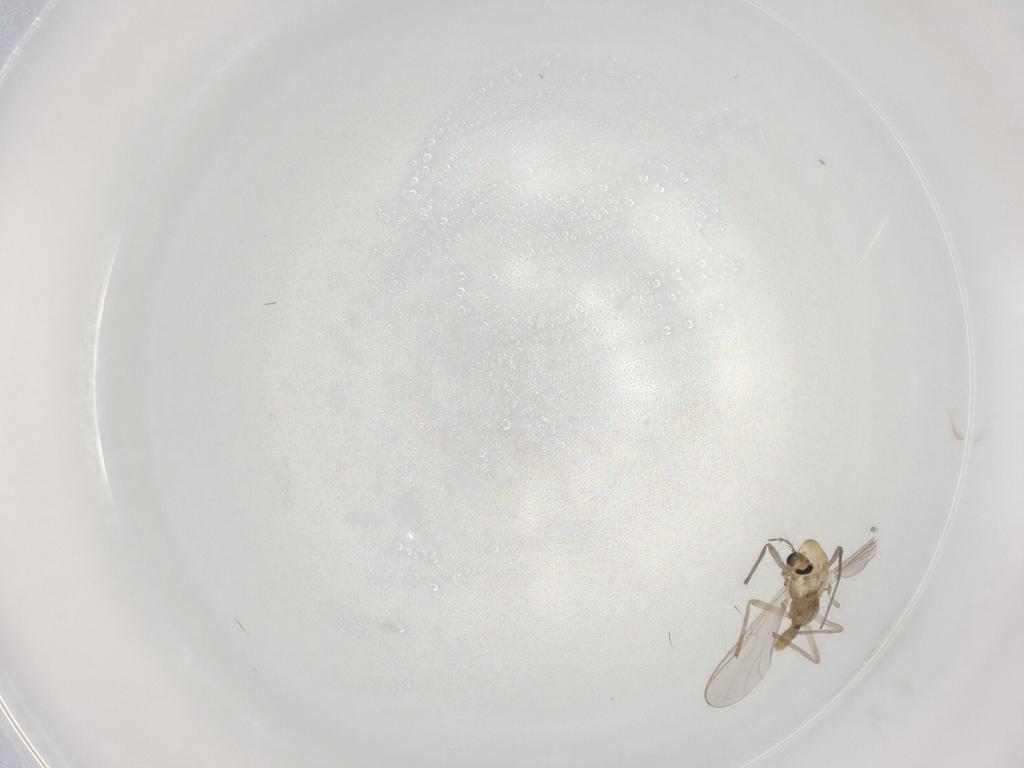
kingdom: Animalia
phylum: Arthropoda
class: Insecta
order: Diptera
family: Chironomidae
